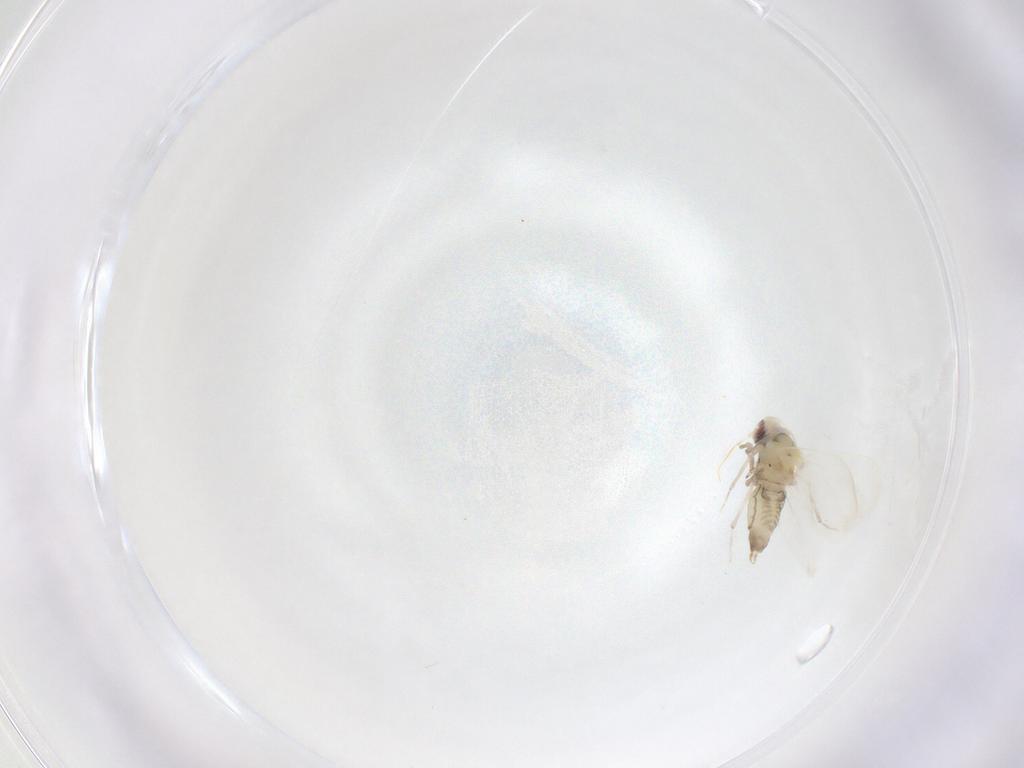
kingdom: Animalia
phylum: Arthropoda
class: Insecta
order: Hemiptera
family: Aleyrodidae
